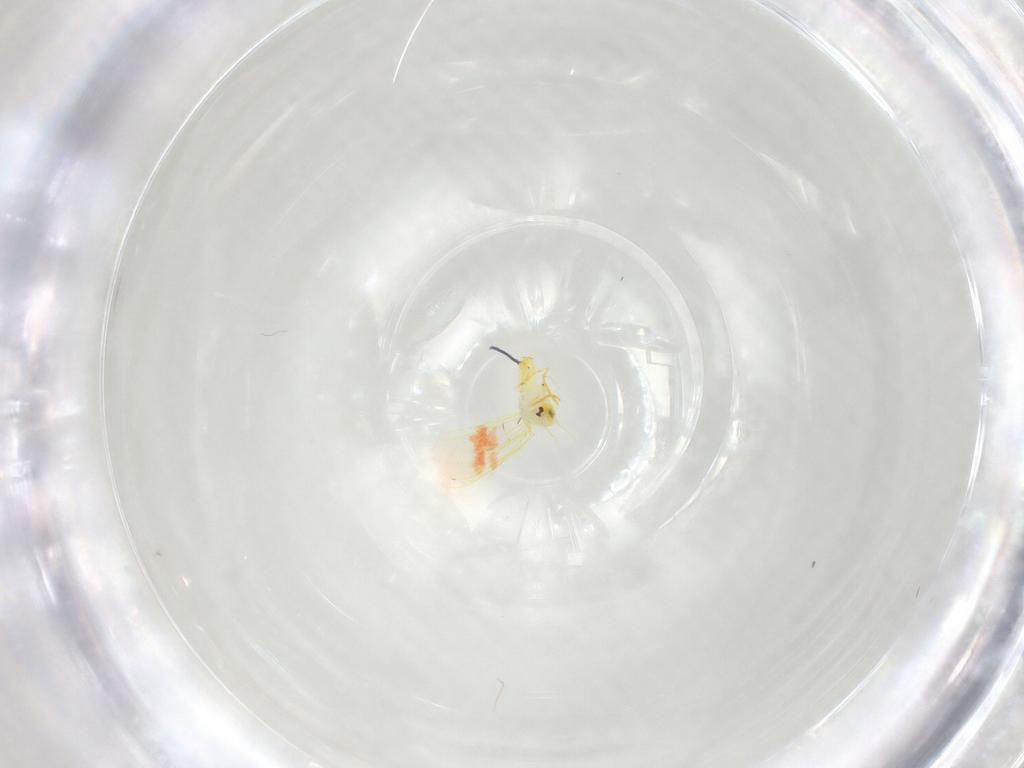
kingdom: Animalia
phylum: Arthropoda
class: Insecta
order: Hemiptera
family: Aleyrodidae
